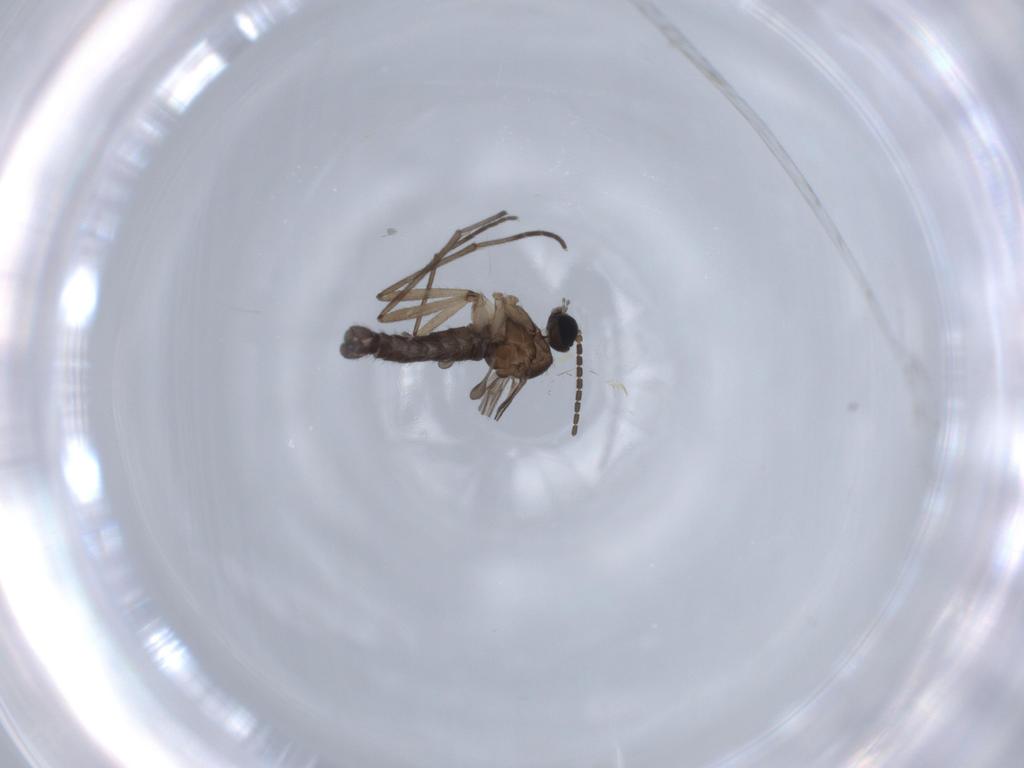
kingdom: Animalia
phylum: Arthropoda
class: Insecta
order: Diptera
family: Sciaridae
